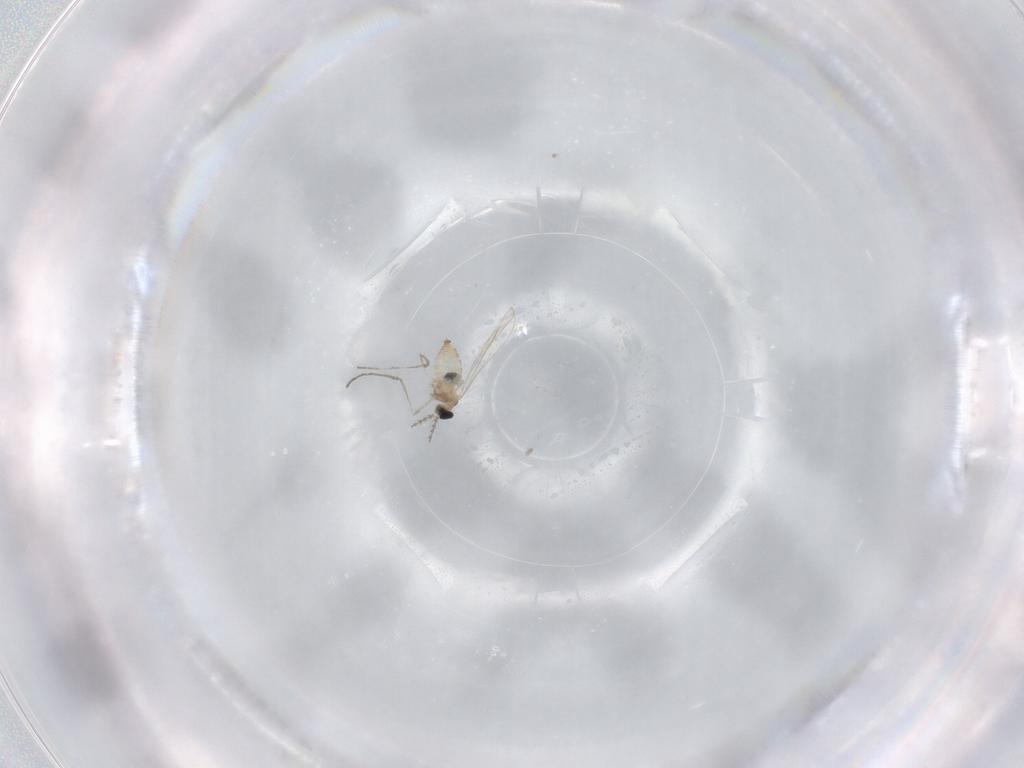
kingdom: Animalia
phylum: Arthropoda
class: Insecta
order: Diptera
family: Cecidomyiidae
